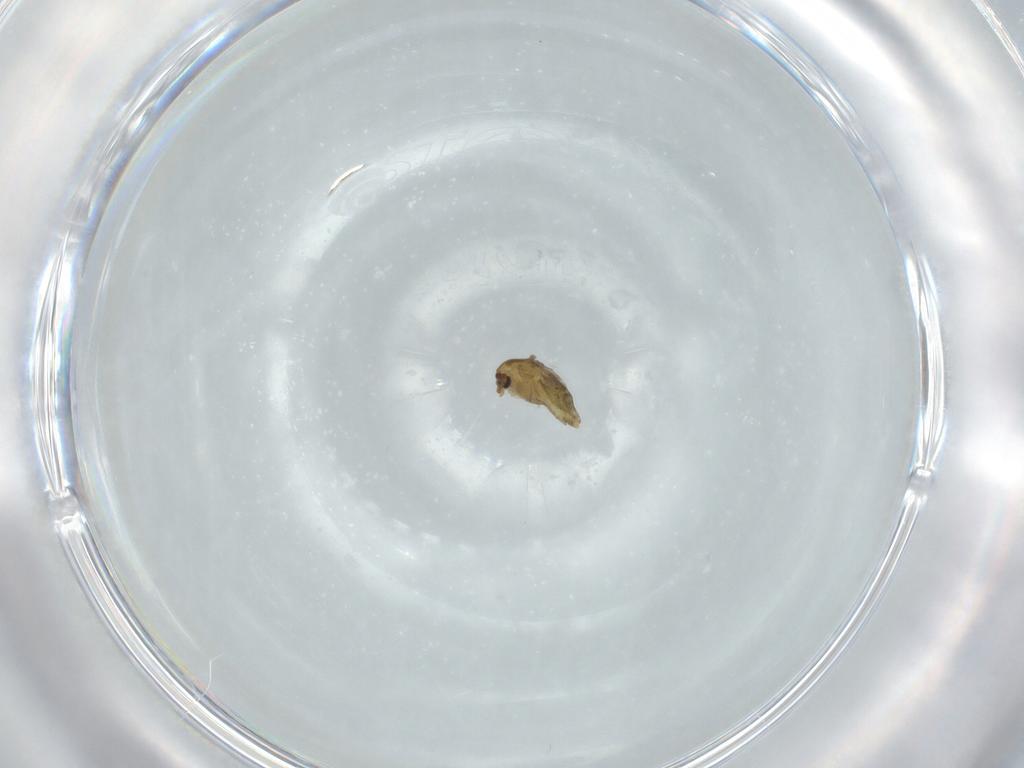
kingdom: Animalia
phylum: Arthropoda
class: Insecta
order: Diptera
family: Chironomidae
